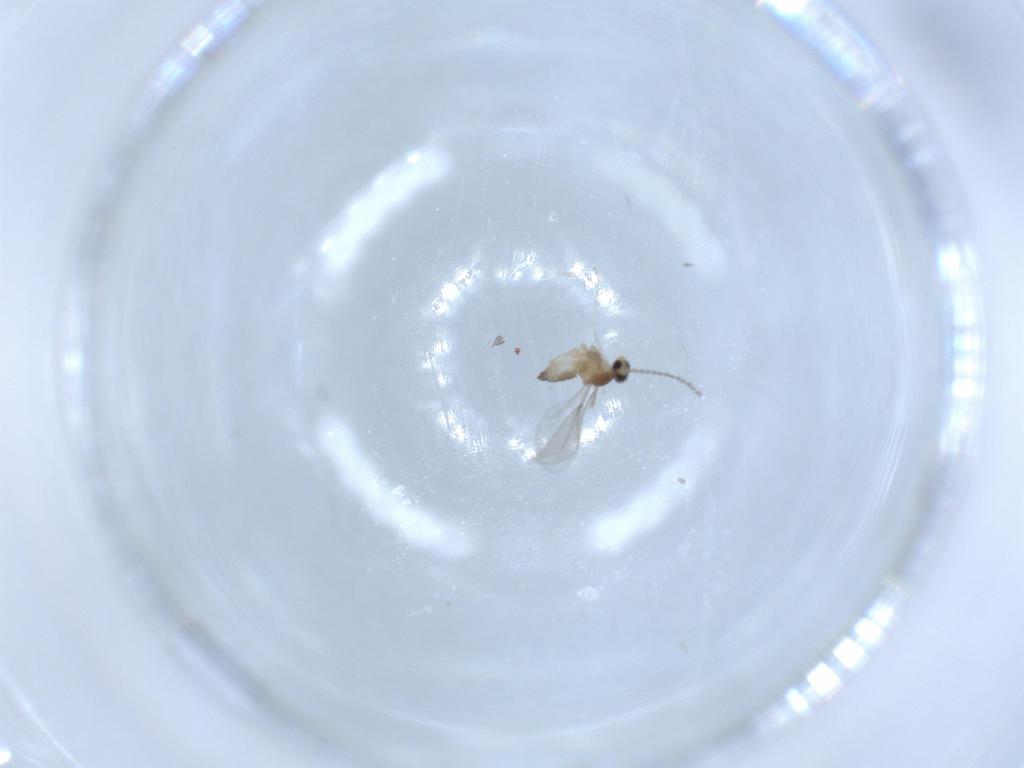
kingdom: Animalia
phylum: Arthropoda
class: Insecta
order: Diptera
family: Cecidomyiidae
